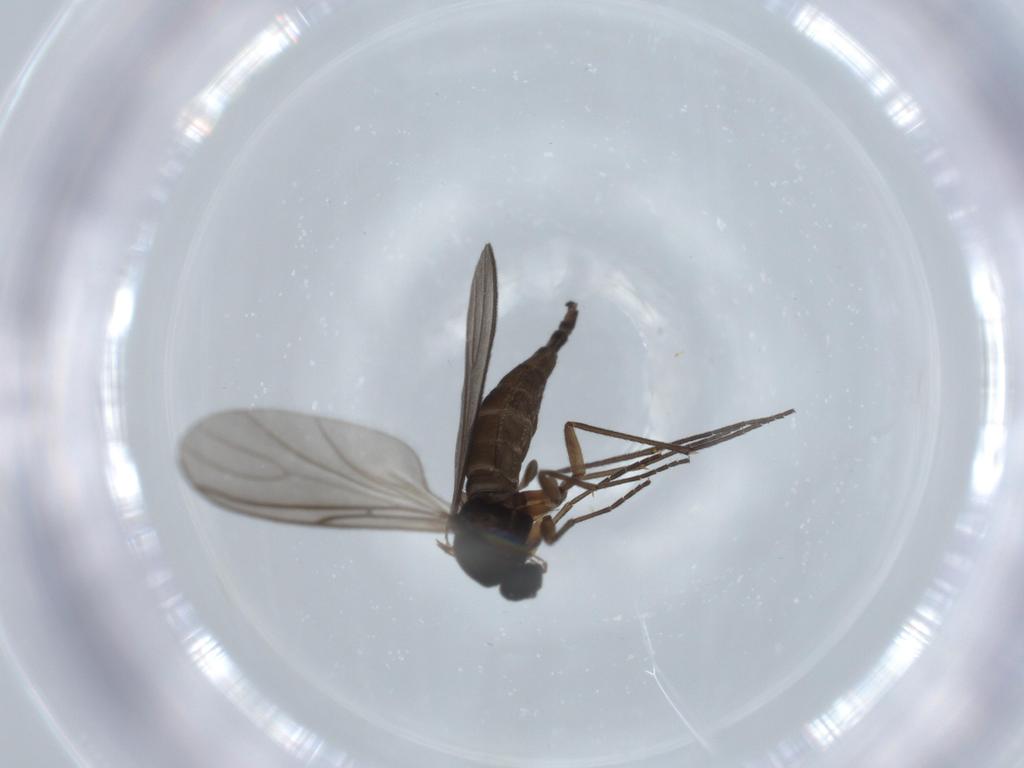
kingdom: Animalia
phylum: Arthropoda
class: Insecta
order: Diptera
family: Sciaridae
